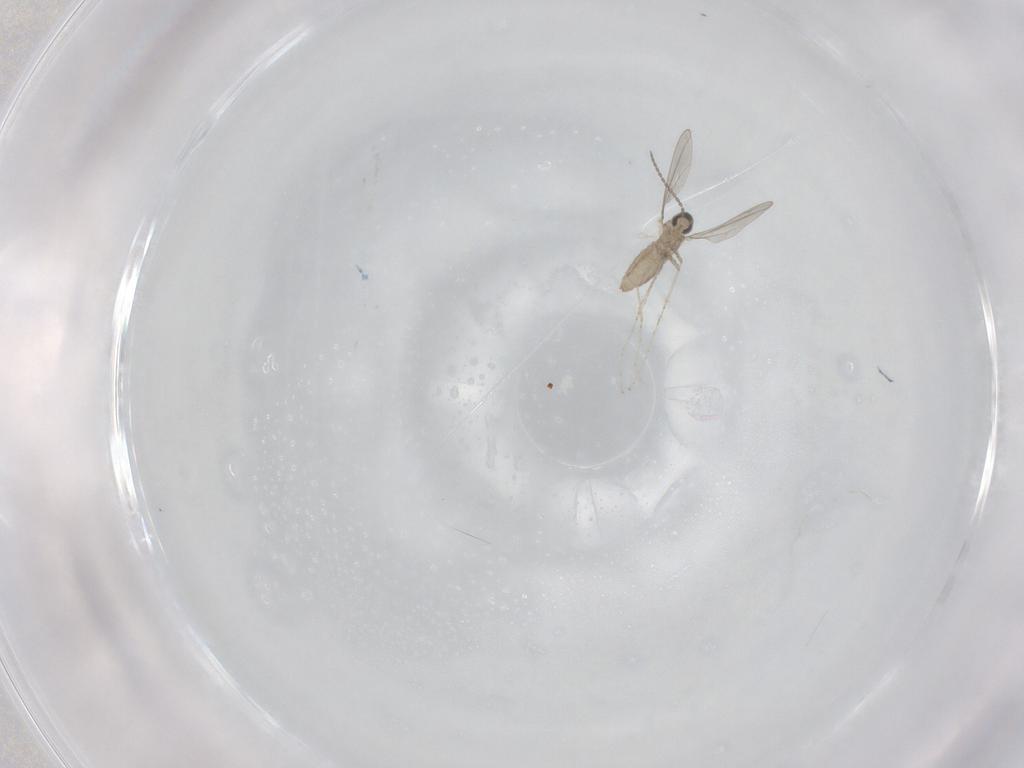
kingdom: Animalia
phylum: Arthropoda
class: Insecta
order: Diptera
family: Cecidomyiidae
